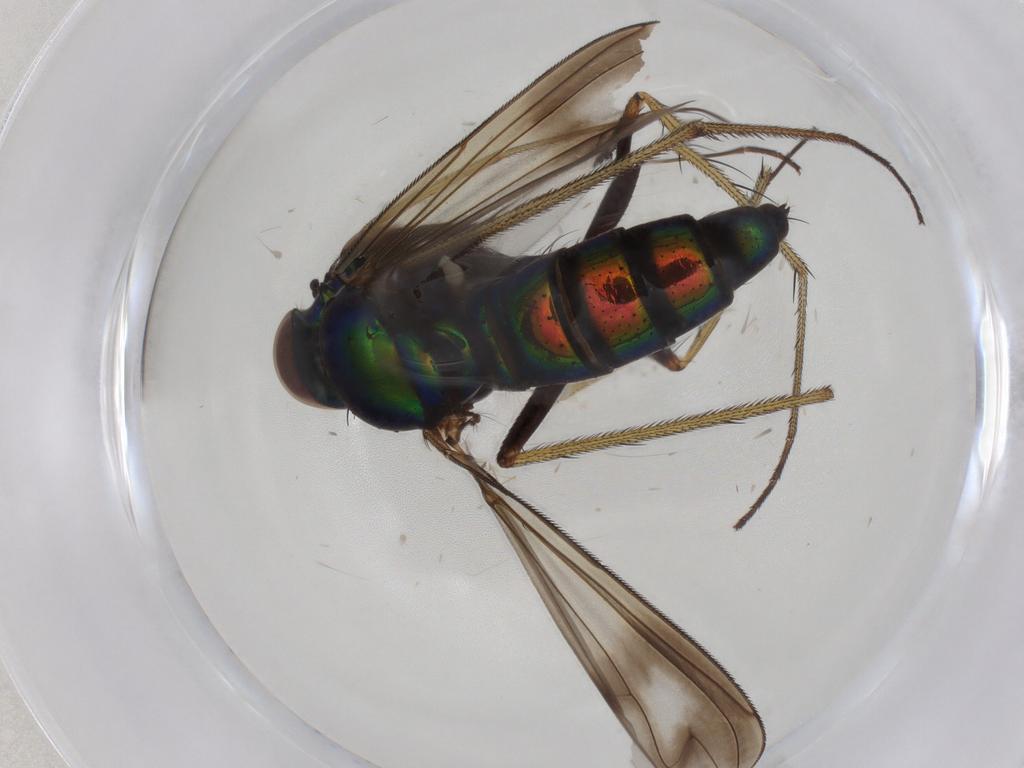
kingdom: Animalia
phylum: Arthropoda
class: Insecta
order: Diptera
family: Dolichopodidae
